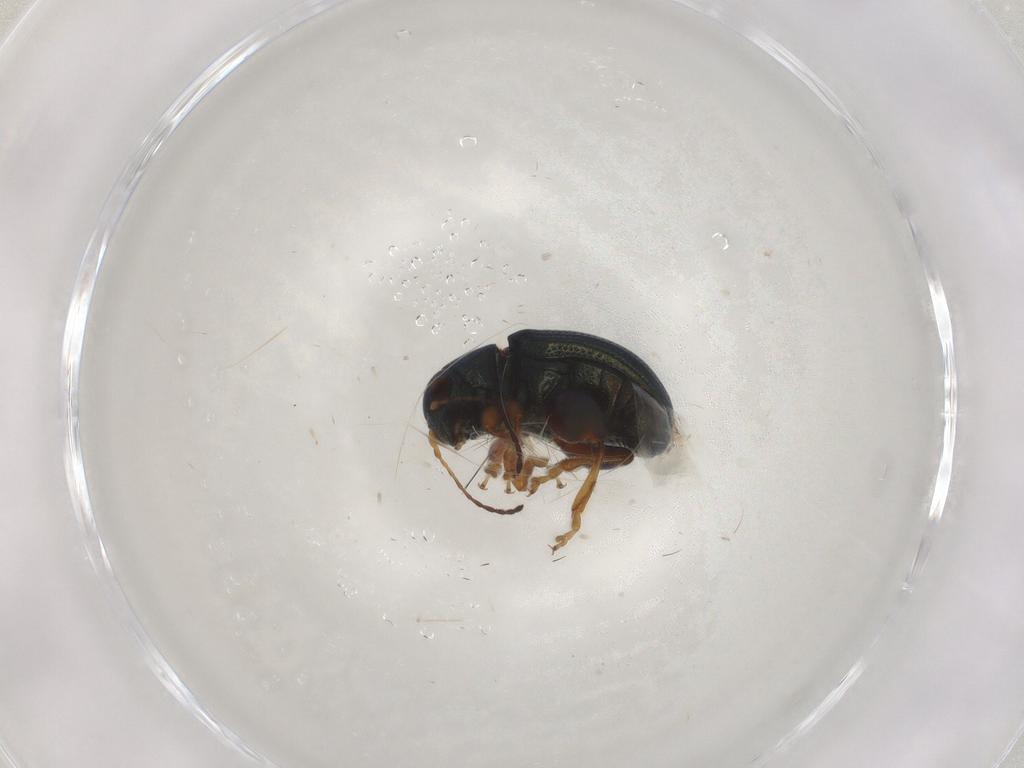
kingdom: Animalia
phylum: Arthropoda
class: Insecta
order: Coleoptera
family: Chrysomelidae
